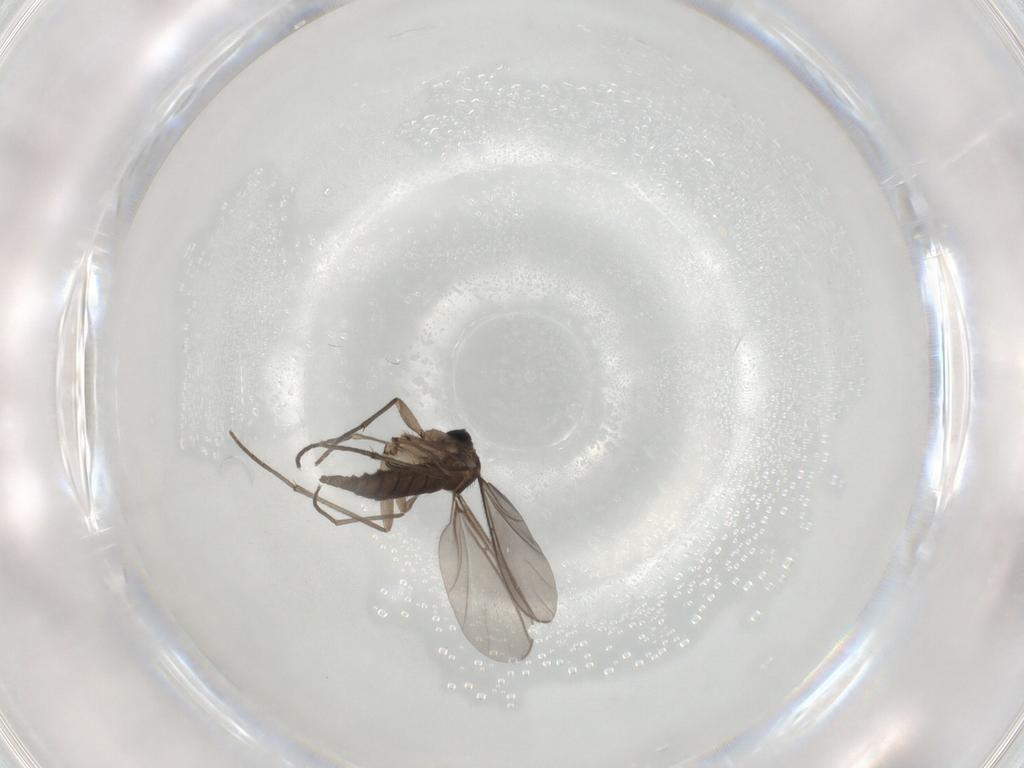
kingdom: Animalia
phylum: Arthropoda
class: Insecta
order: Diptera
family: Sciaridae
